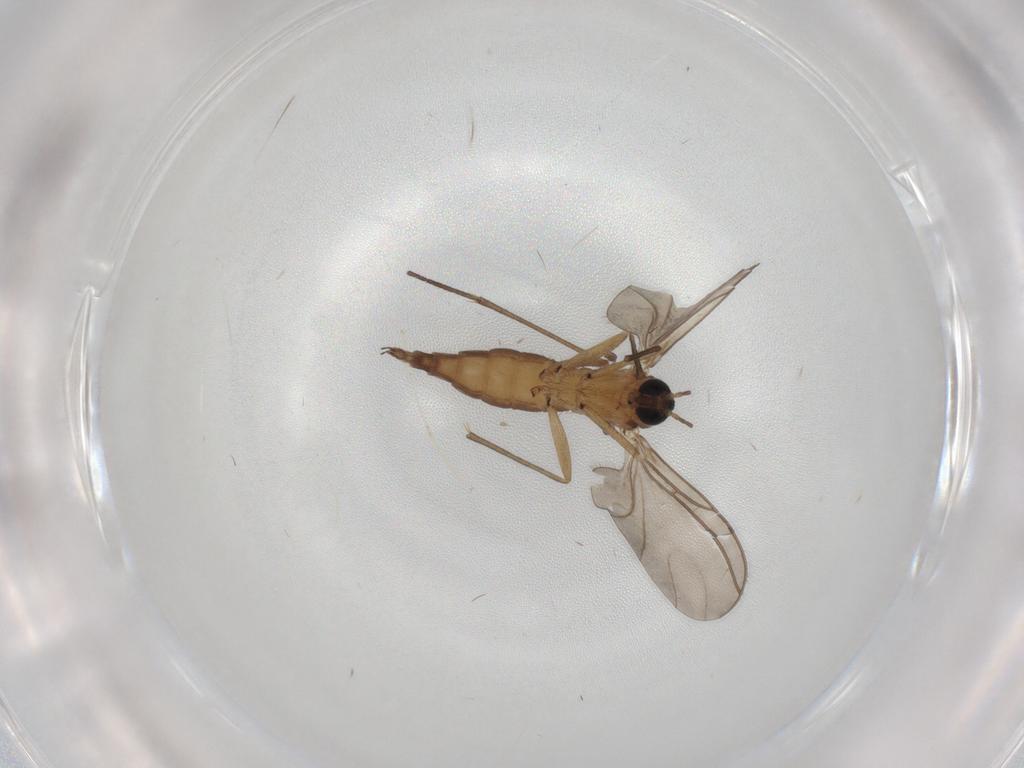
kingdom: Animalia
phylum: Arthropoda
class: Insecta
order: Diptera
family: Sciaridae
